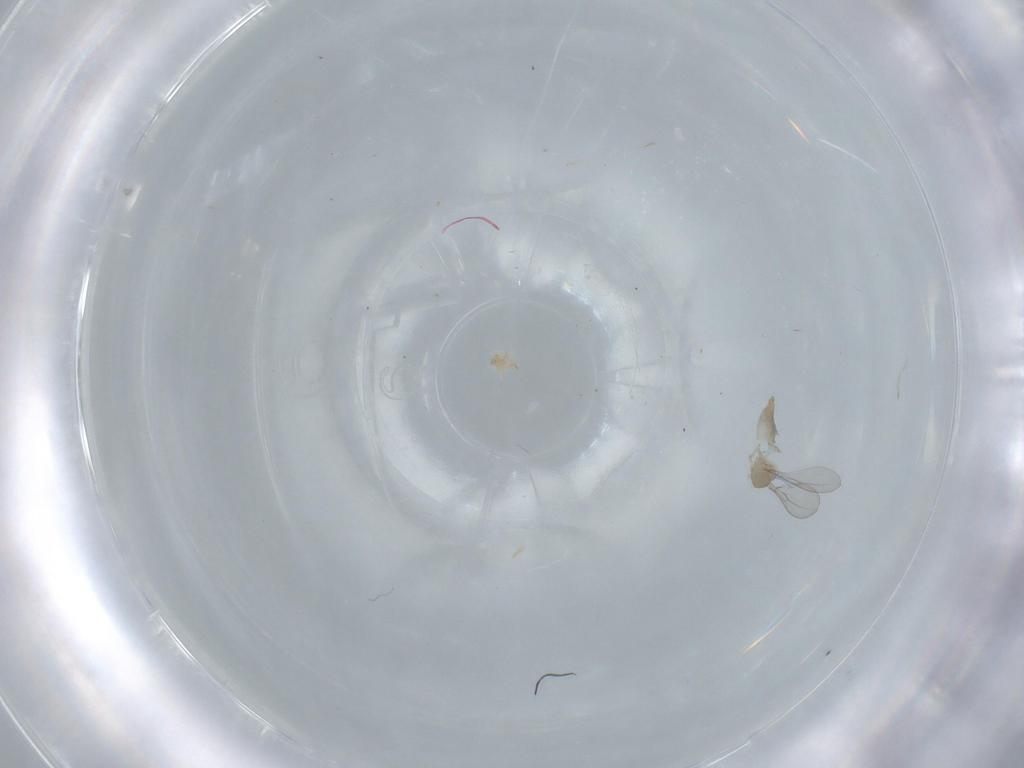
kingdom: Animalia
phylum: Arthropoda
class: Insecta
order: Diptera
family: Cecidomyiidae
